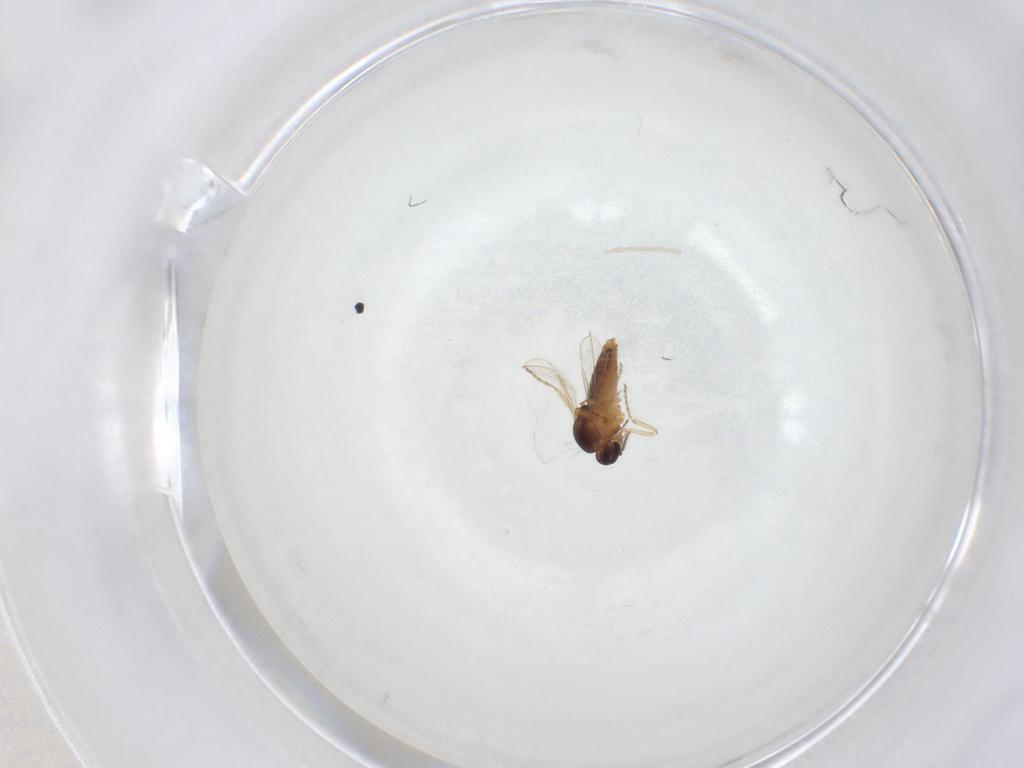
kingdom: Animalia
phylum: Arthropoda
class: Insecta
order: Diptera
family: Ceratopogonidae
